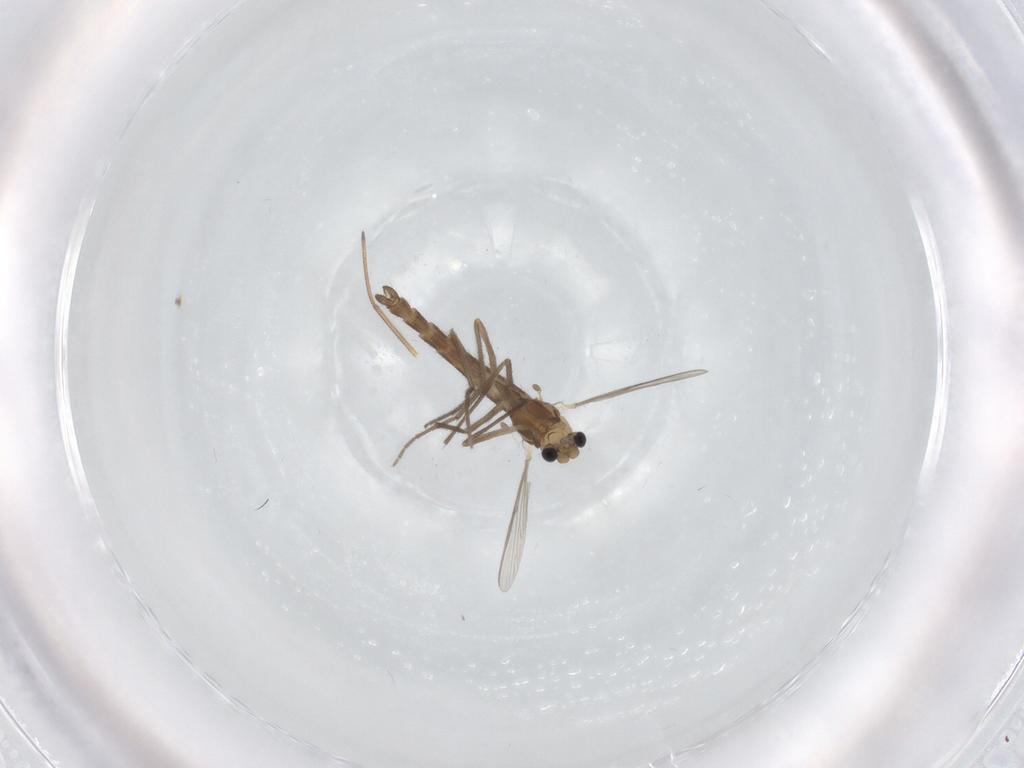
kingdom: Animalia
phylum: Arthropoda
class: Insecta
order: Diptera
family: Chironomidae
